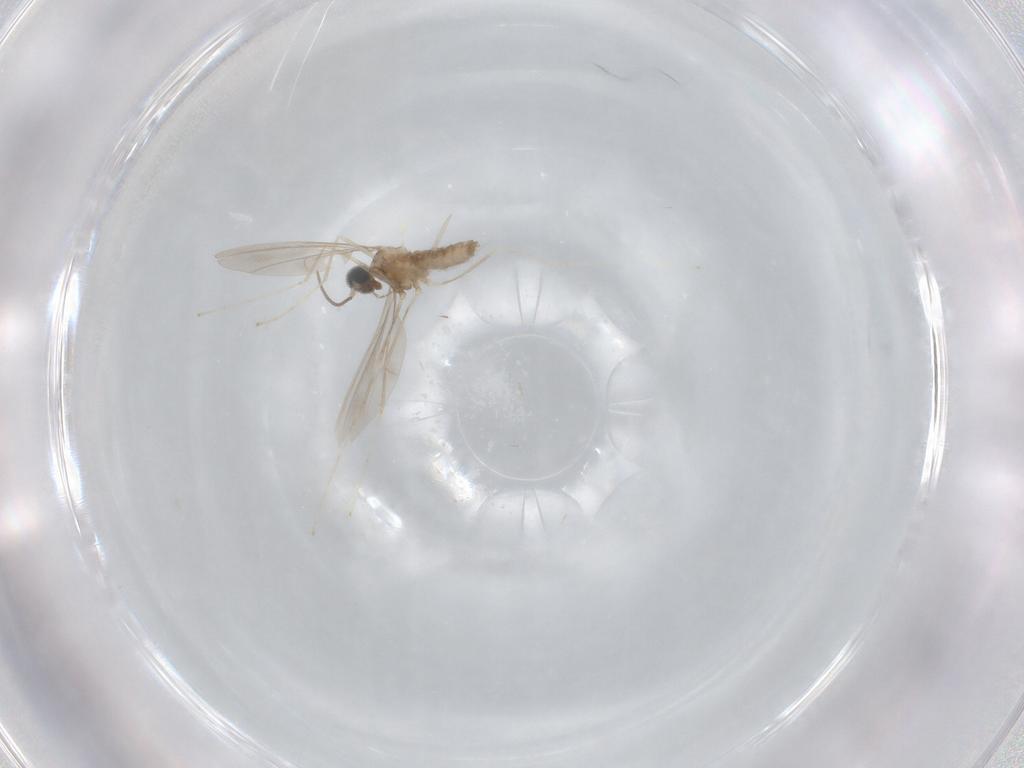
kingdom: Animalia
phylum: Arthropoda
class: Insecta
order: Diptera
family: Cecidomyiidae
